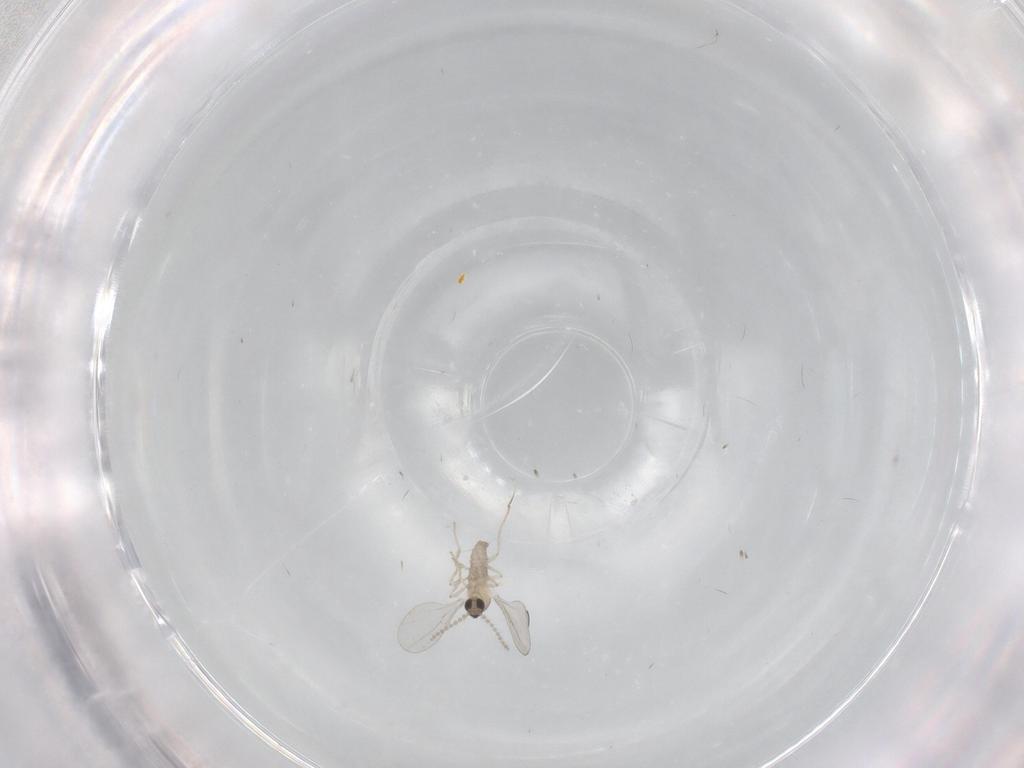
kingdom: Animalia
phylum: Arthropoda
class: Insecta
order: Diptera
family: Cecidomyiidae
